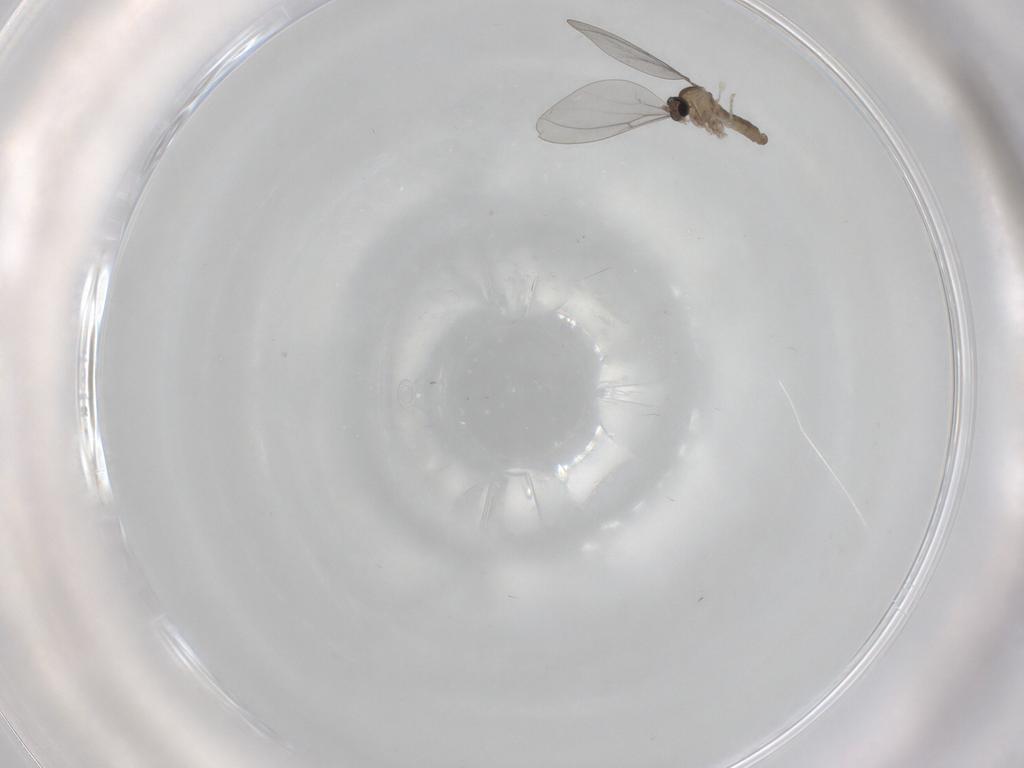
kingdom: Animalia
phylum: Arthropoda
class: Insecta
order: Diptera
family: Cecidomyiidae
